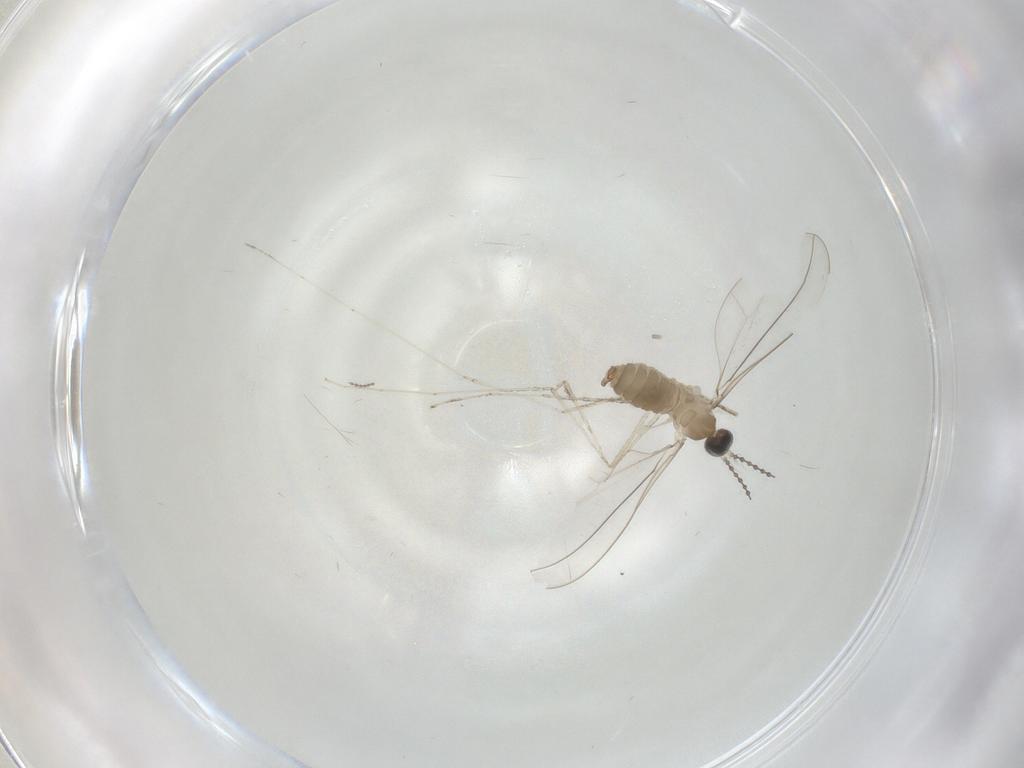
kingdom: Animalia
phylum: Arthropoda
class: Insecta
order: Diptera
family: Cecidomyiidae
